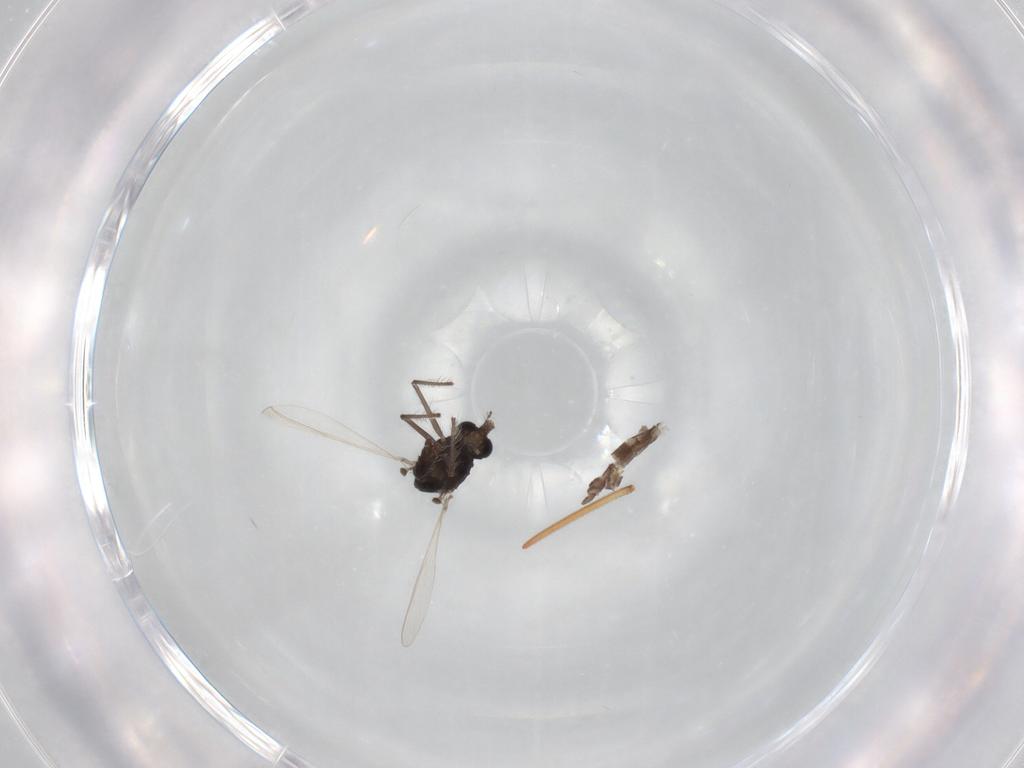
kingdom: Animalia
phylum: Arthropoda
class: Insecta
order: Diptera
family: Chironomidae
